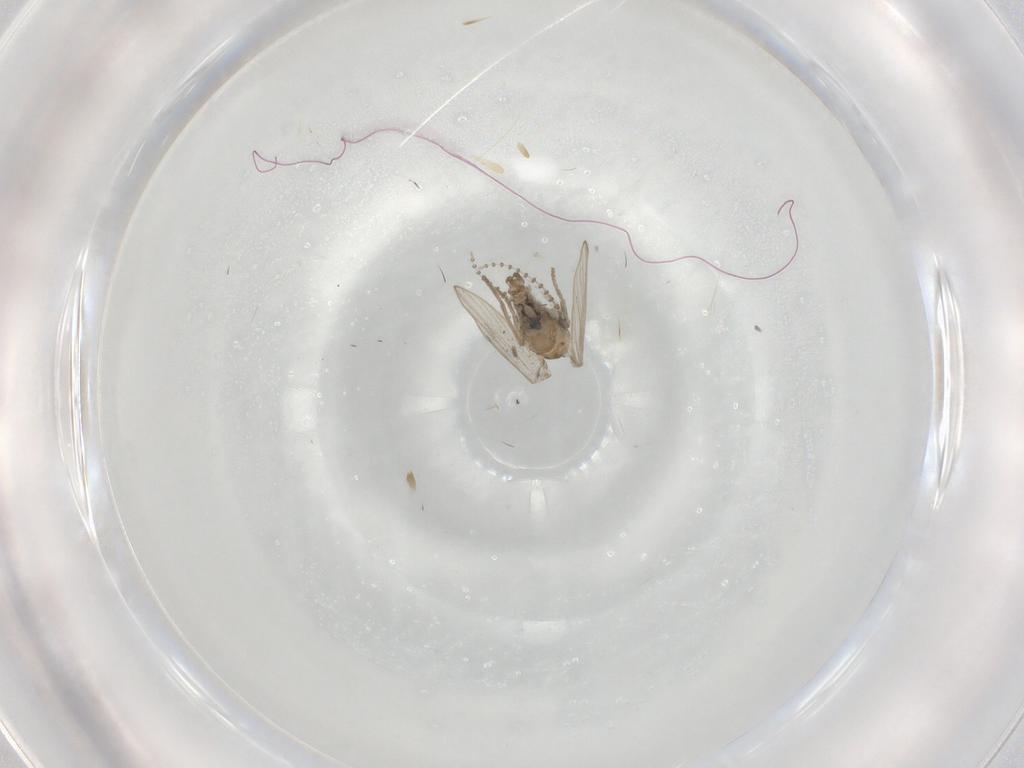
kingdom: Animalia
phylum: Arthropoda
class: Insecta
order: Diptera
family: Psychodidae
